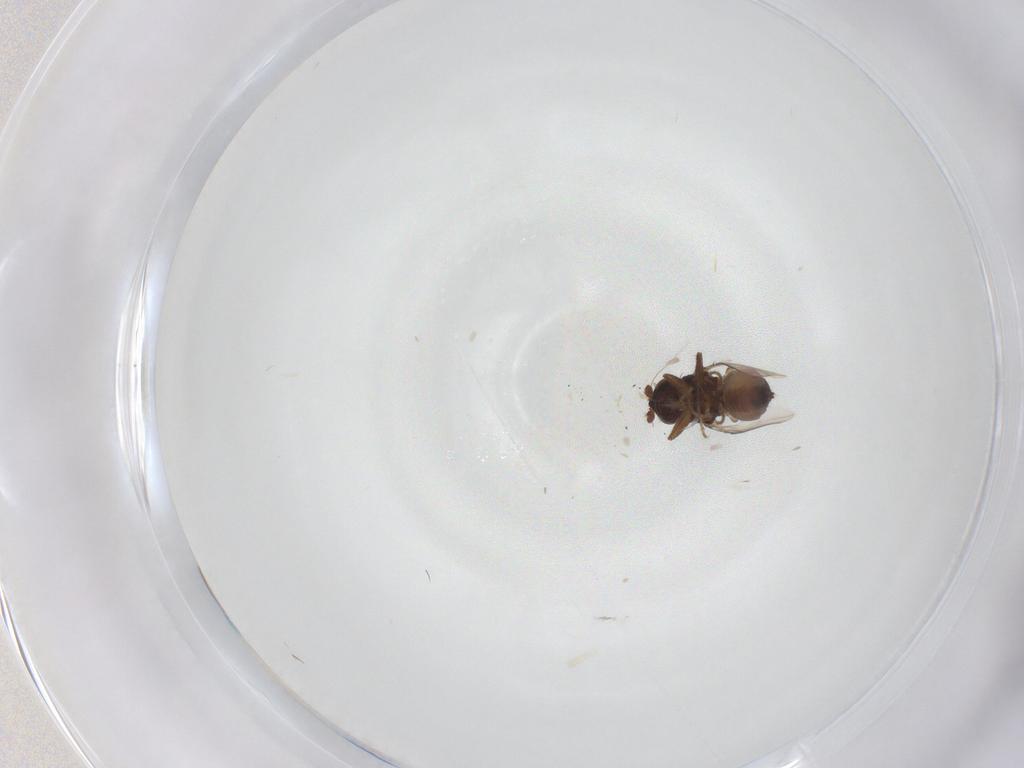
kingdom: Animalia
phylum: Arthropoda
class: Insecta
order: Diptera
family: Sphaeroceridae
